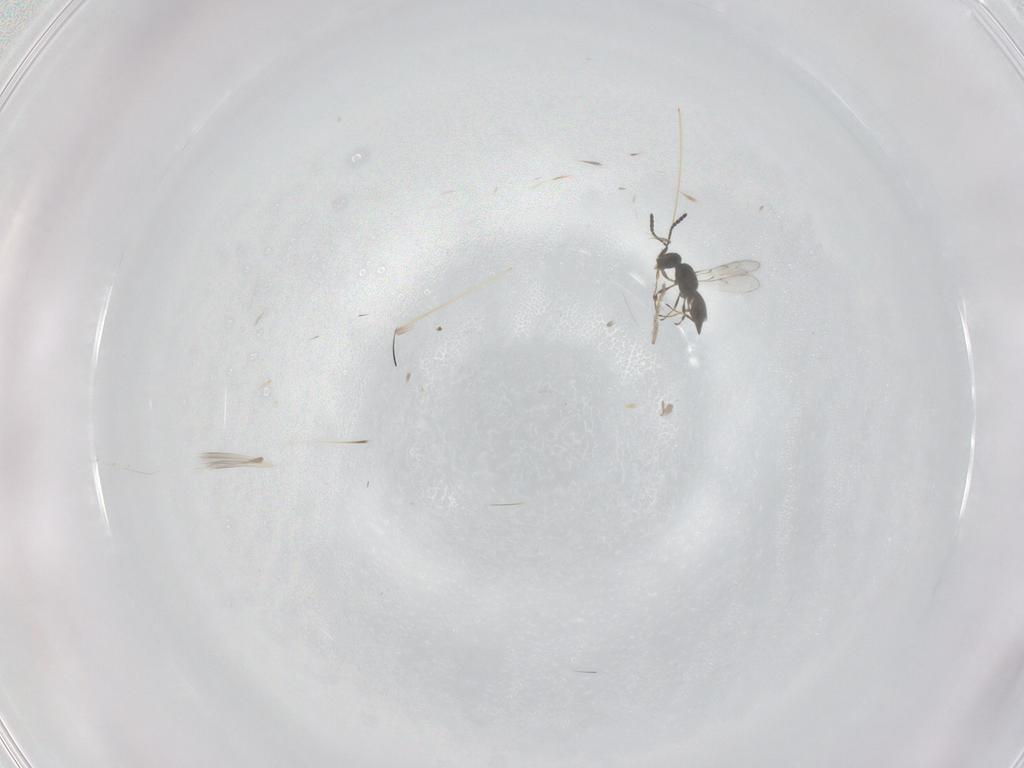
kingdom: Animalia
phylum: Arthropoda
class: Insecta
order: Hymenoptera
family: Scelionidae
